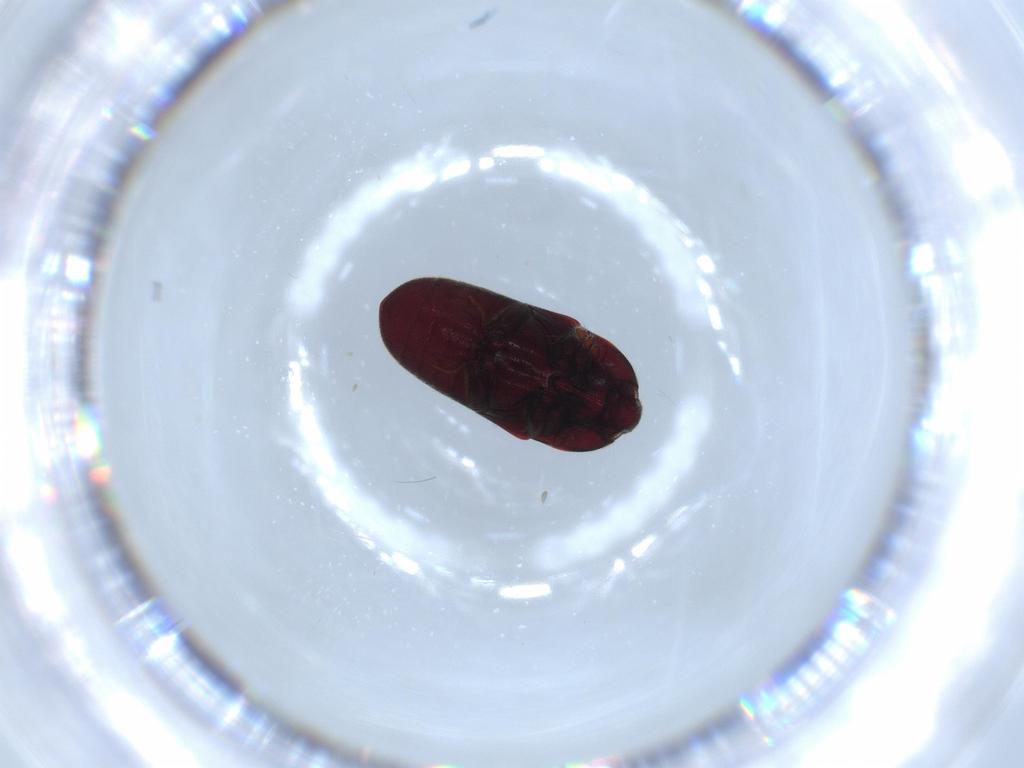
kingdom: Animalia
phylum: Arthropoda
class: Insecta
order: Coleoptera
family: Throscidae
